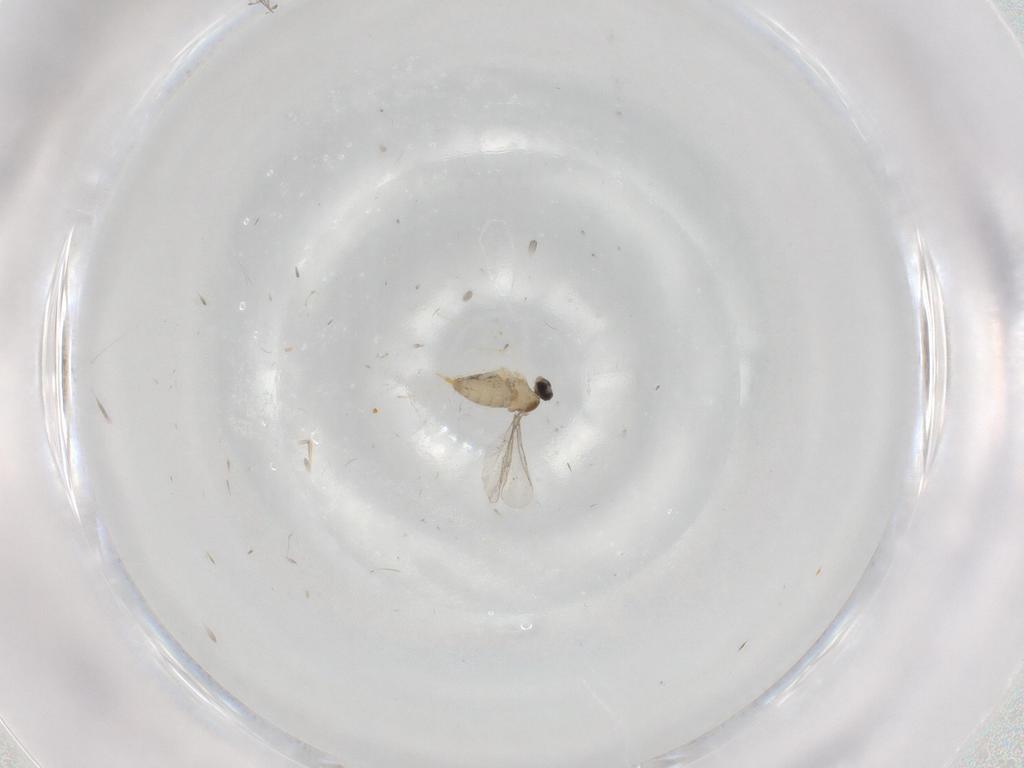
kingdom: Animalia
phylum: Arthropoda
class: Insecta
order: Diptera
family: Cecidomyiidae
